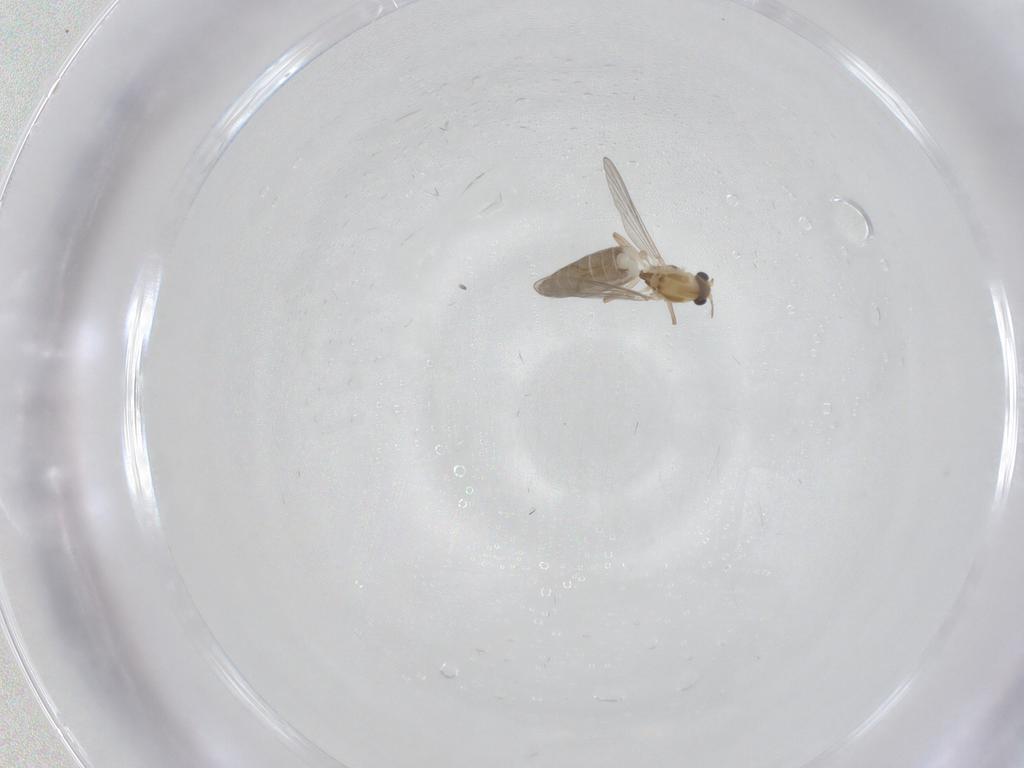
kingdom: Animalia
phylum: Arthropoda
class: Insecta
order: Diptera
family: Chironomidae
